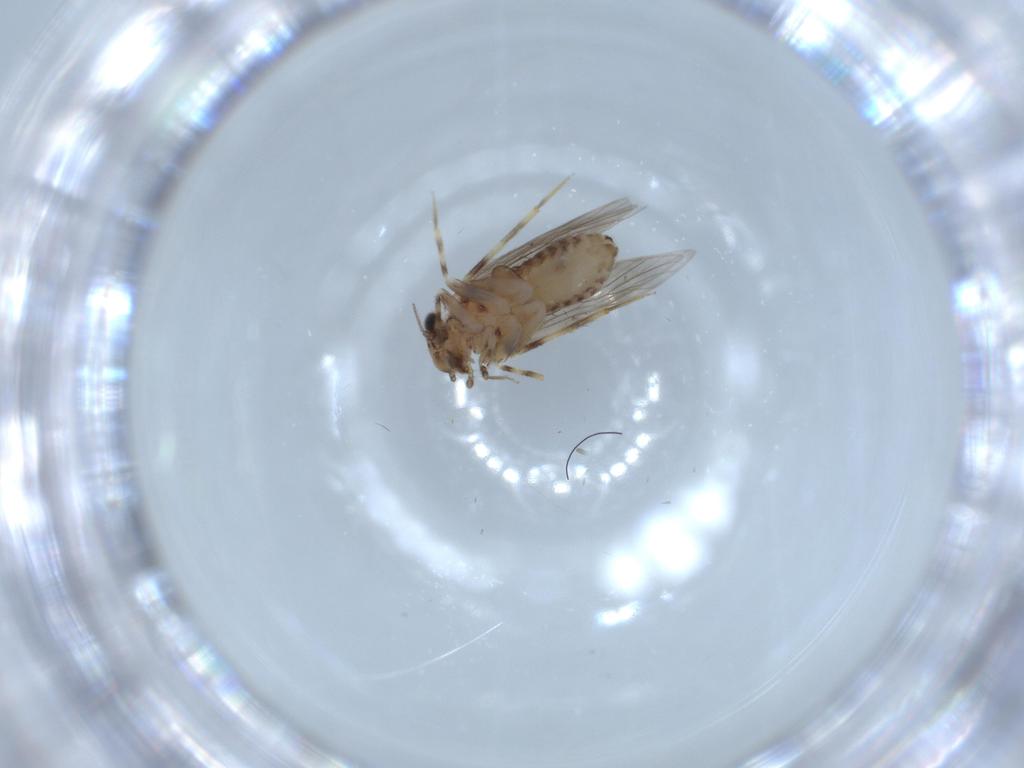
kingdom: Animalia
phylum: Arthropoda
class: Insecta
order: Psocodea
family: Lepidopsocidae
